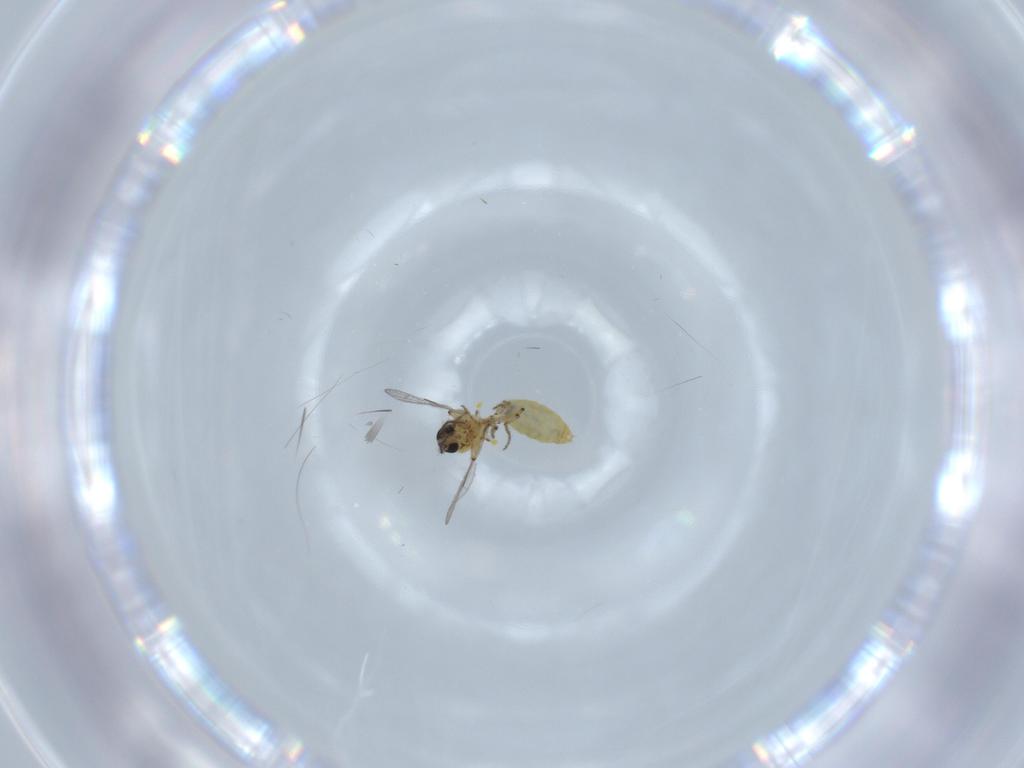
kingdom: Animalia
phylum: Arthropoda
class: Insecta
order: Diptera
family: Ceratopogonidae
